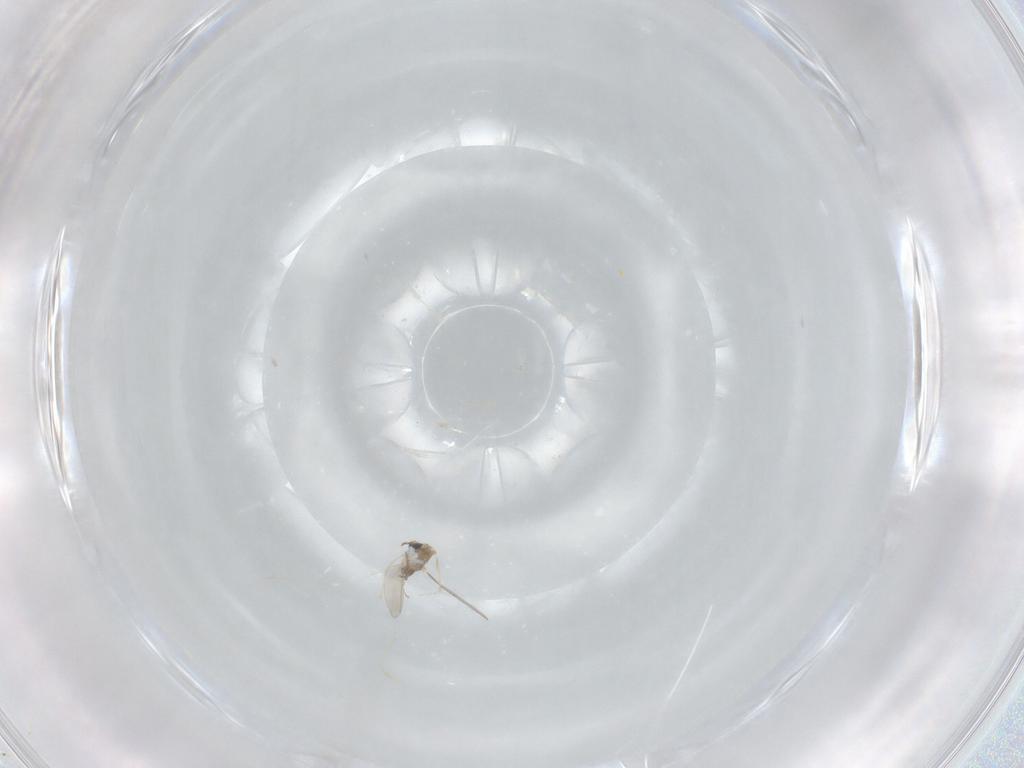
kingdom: Animalia
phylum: Arthropoda
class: Insecta
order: Diptera
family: Cecidomyiidae
